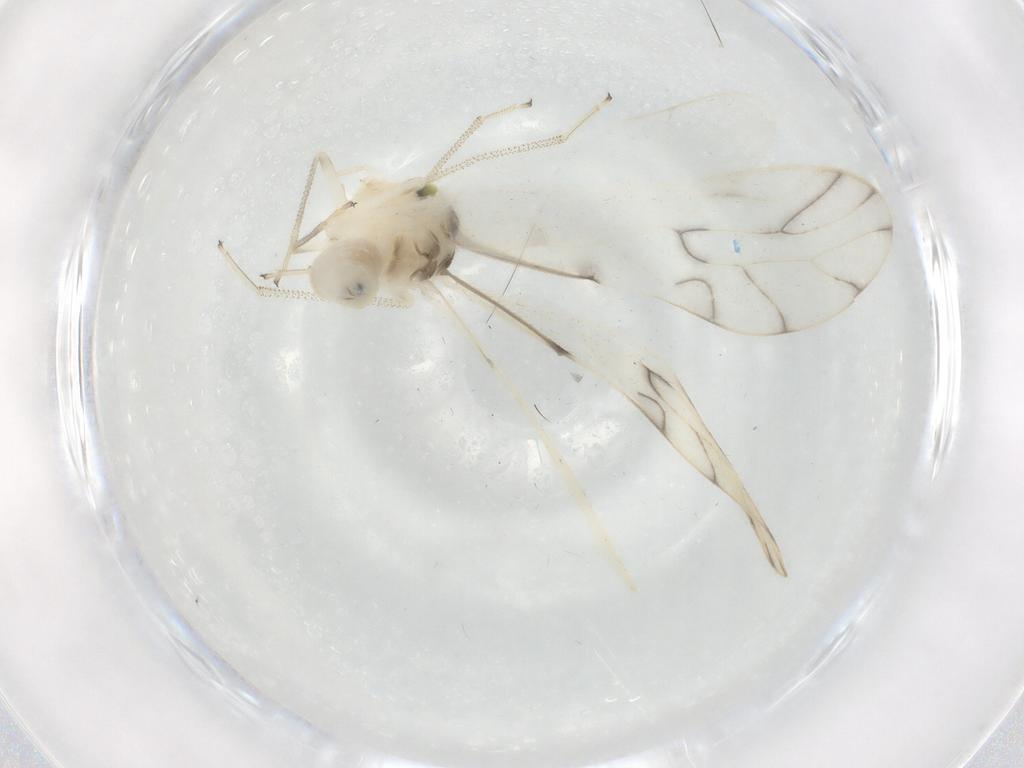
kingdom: Animalia
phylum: Arthropoda
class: Insecta
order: Psocodea
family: Caeciliusidae
